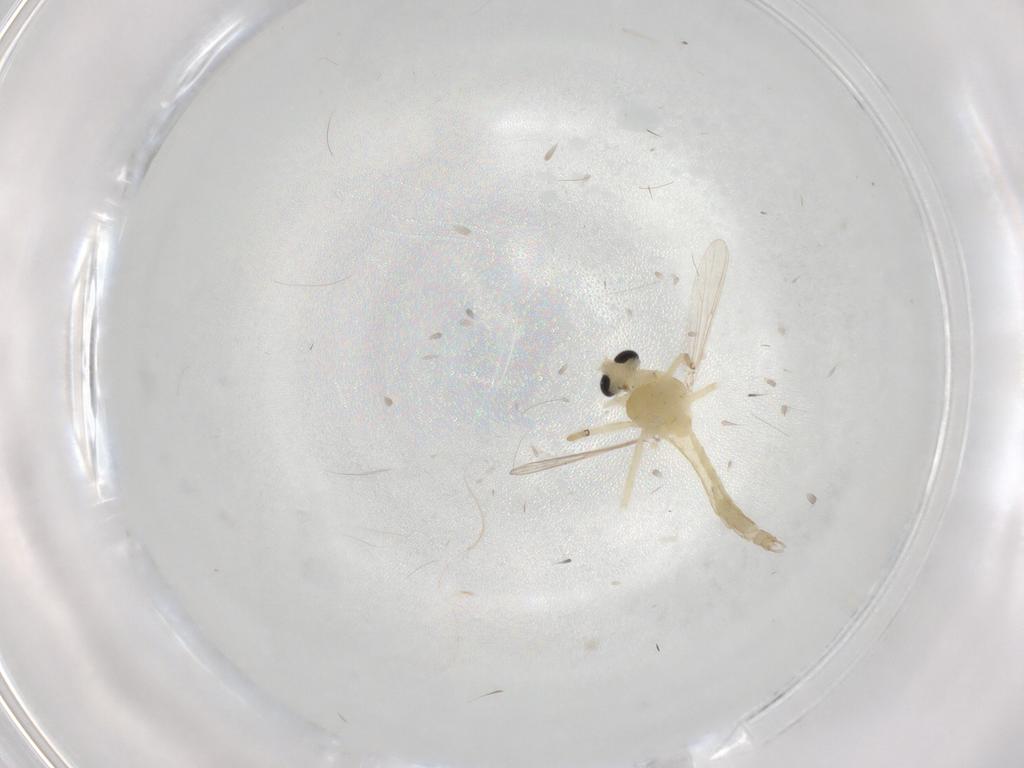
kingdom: Animalia
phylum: Arthropoda
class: Insecta
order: Diptera
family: Chironomidae
